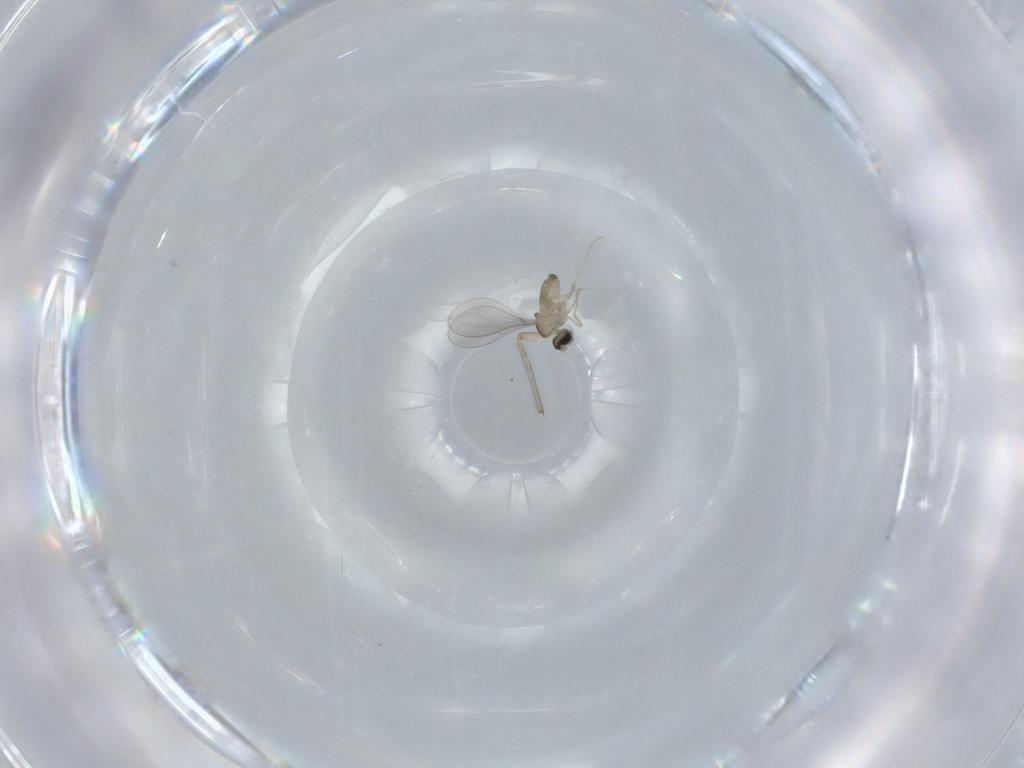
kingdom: Animalia
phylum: Arthropoda
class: Insecta
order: Diptera
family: Cecidomyiidae
